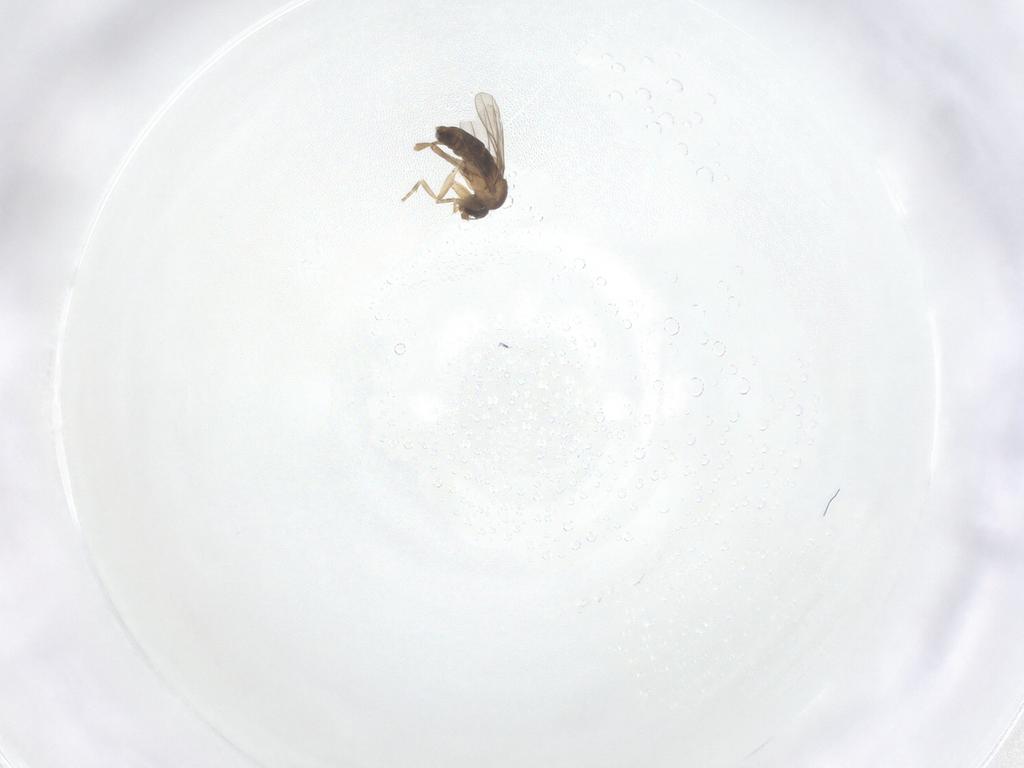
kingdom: Animalia
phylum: Arthropoda
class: Insecta
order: Diptera
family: Phoridae
